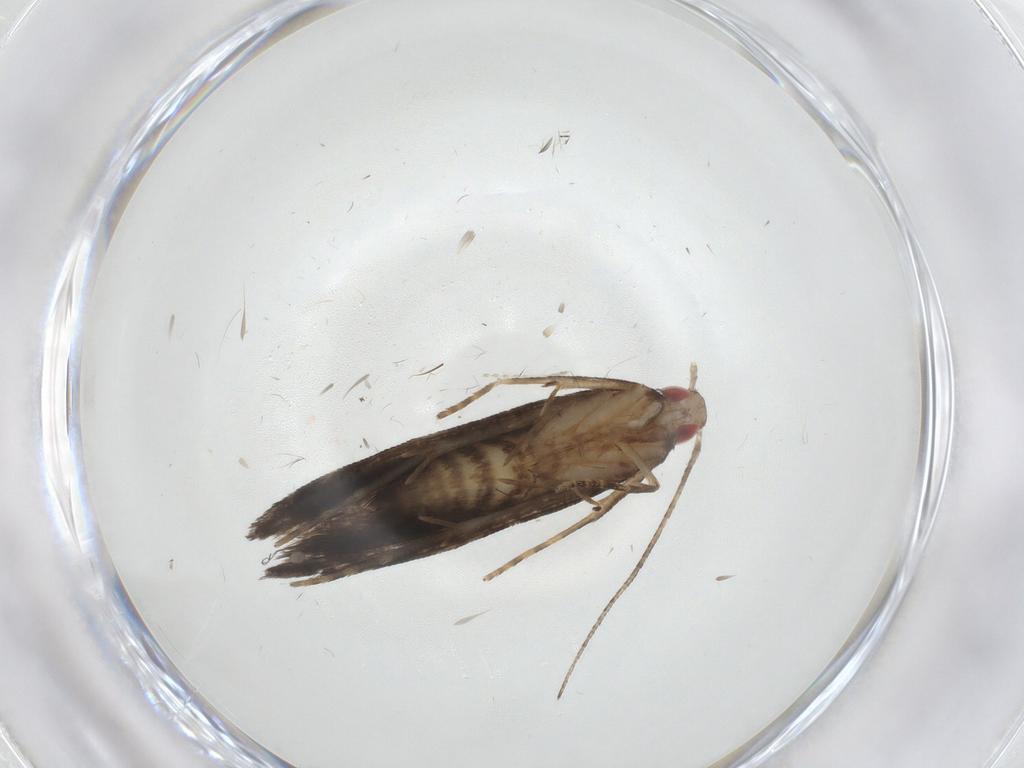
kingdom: Animalia
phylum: Arthropoda
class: Insecta
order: Lepidoptera
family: Gelechiidae
